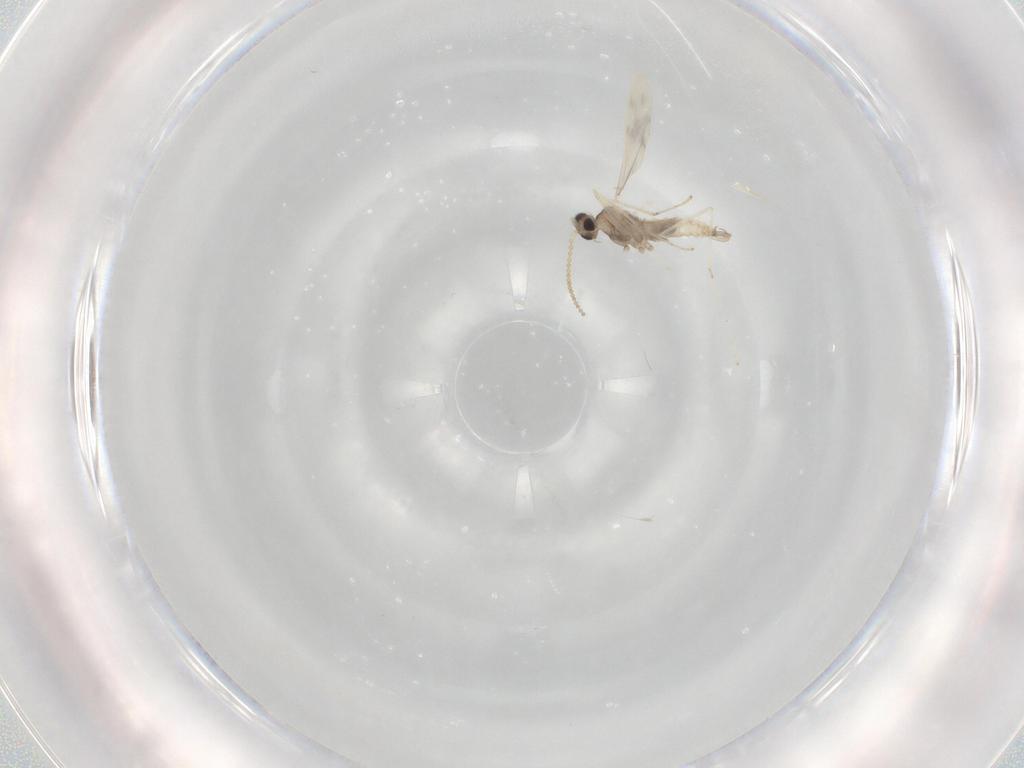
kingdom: Animalia
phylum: Arthropoda
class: Insecta
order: Diptera
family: Cecidomyiidae
